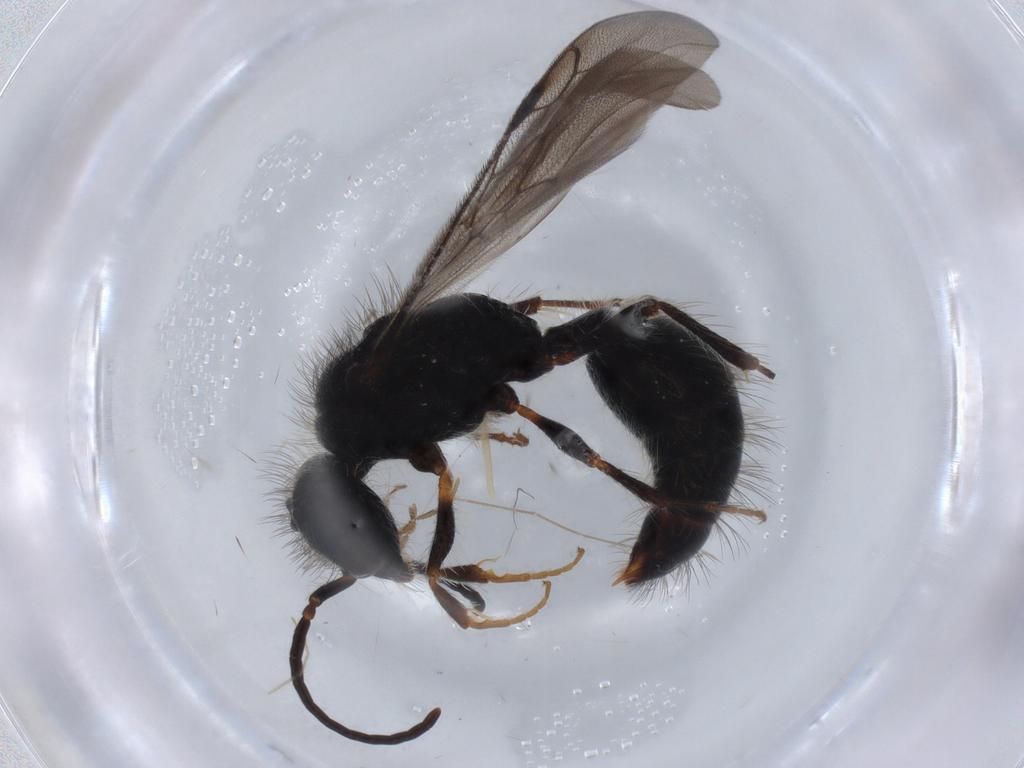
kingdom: Animalia
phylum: Arthropoda
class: Insecta
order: Hymenoptera
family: Mutillidae
